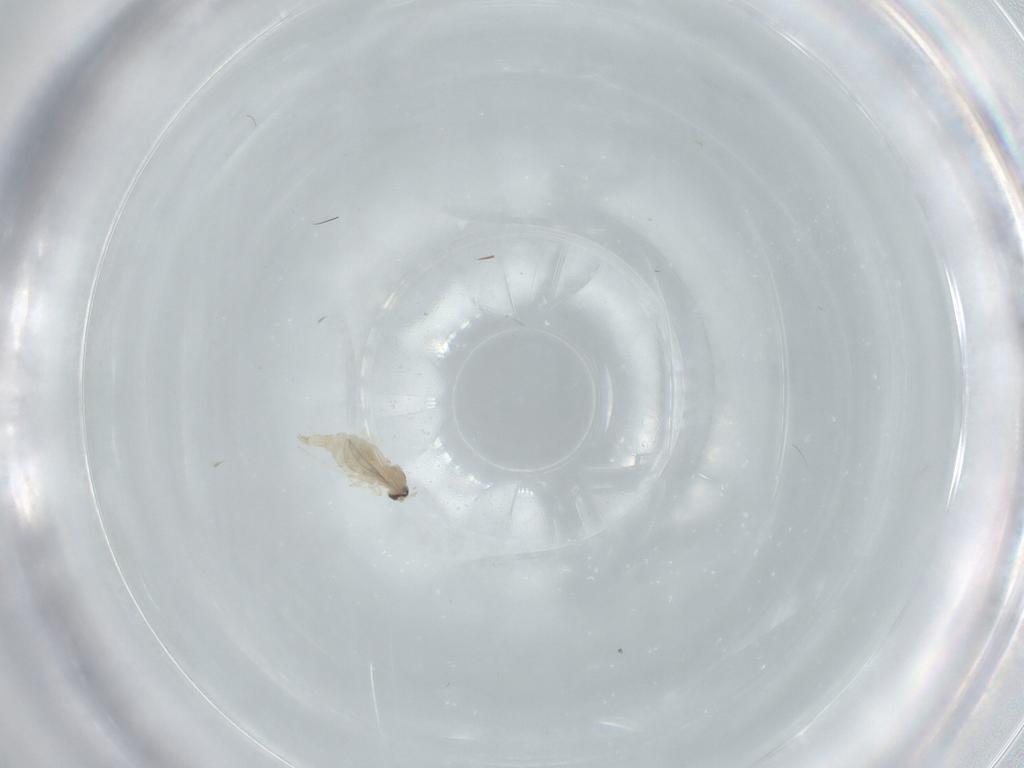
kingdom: Animalia
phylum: Arthropoda
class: Insecta
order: Diptera
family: Cecidomyiidae
